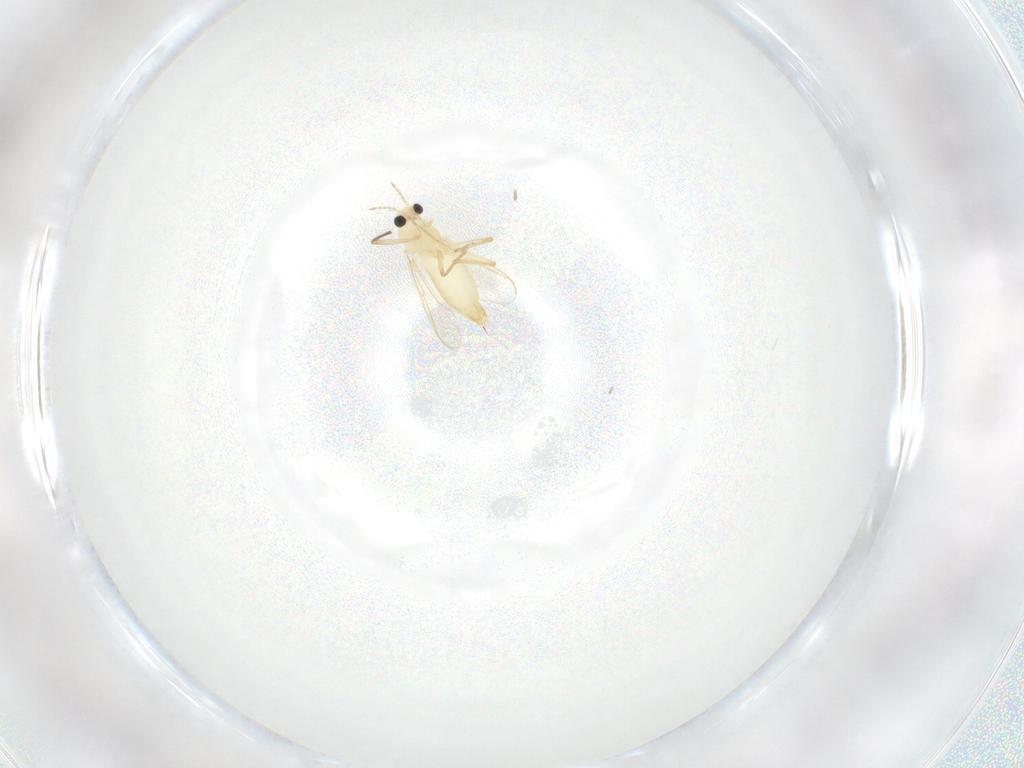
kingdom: Animalia
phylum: Arthropoda
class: Insecta
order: Diptera
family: Chironomidae
